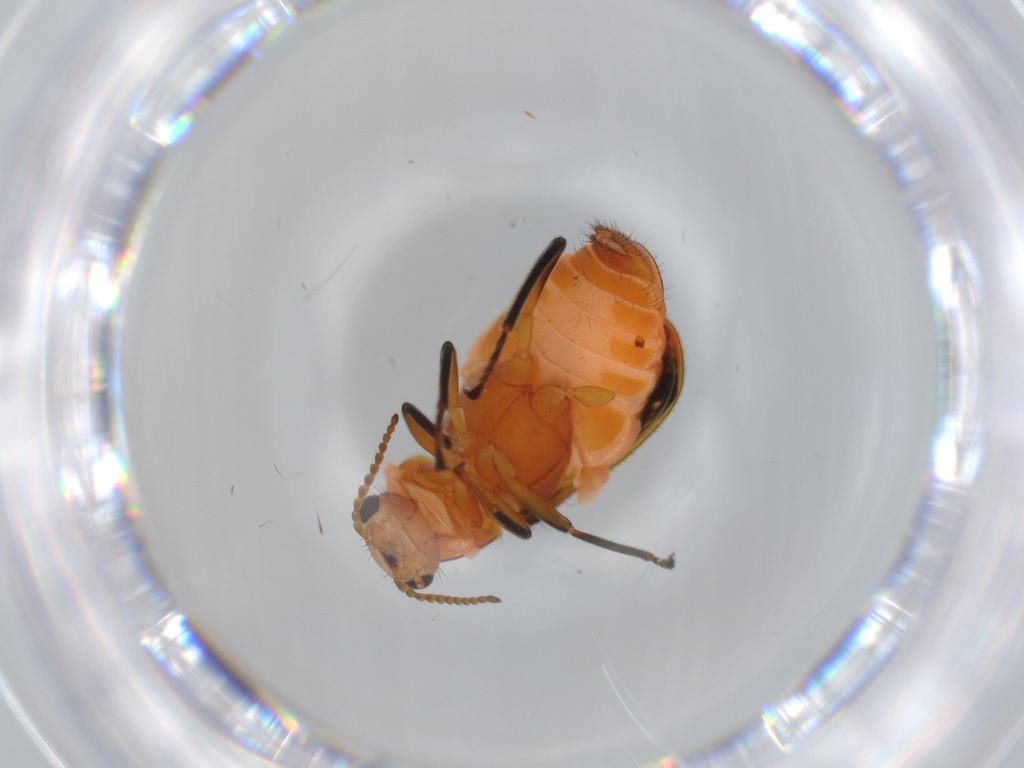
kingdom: Animalia
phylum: Arthropoda
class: Insecta
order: Coleoptera
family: Melyridae
